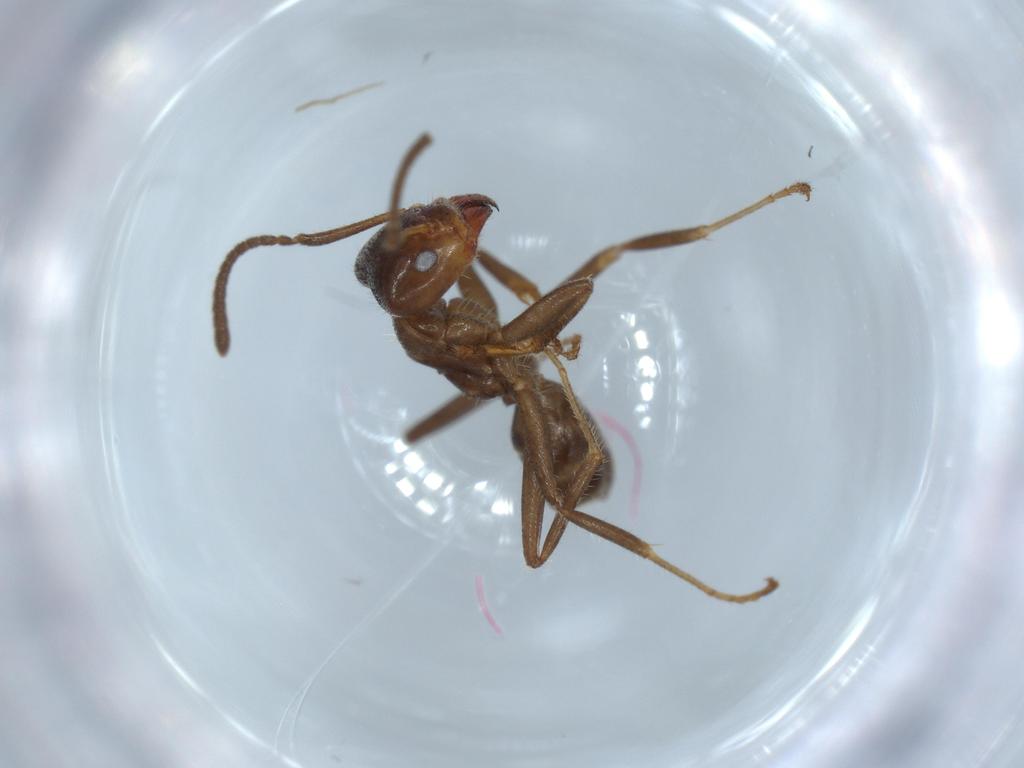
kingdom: Animalia
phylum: Arthropoda
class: Insecta
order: Hymenoptera
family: Formicidae
